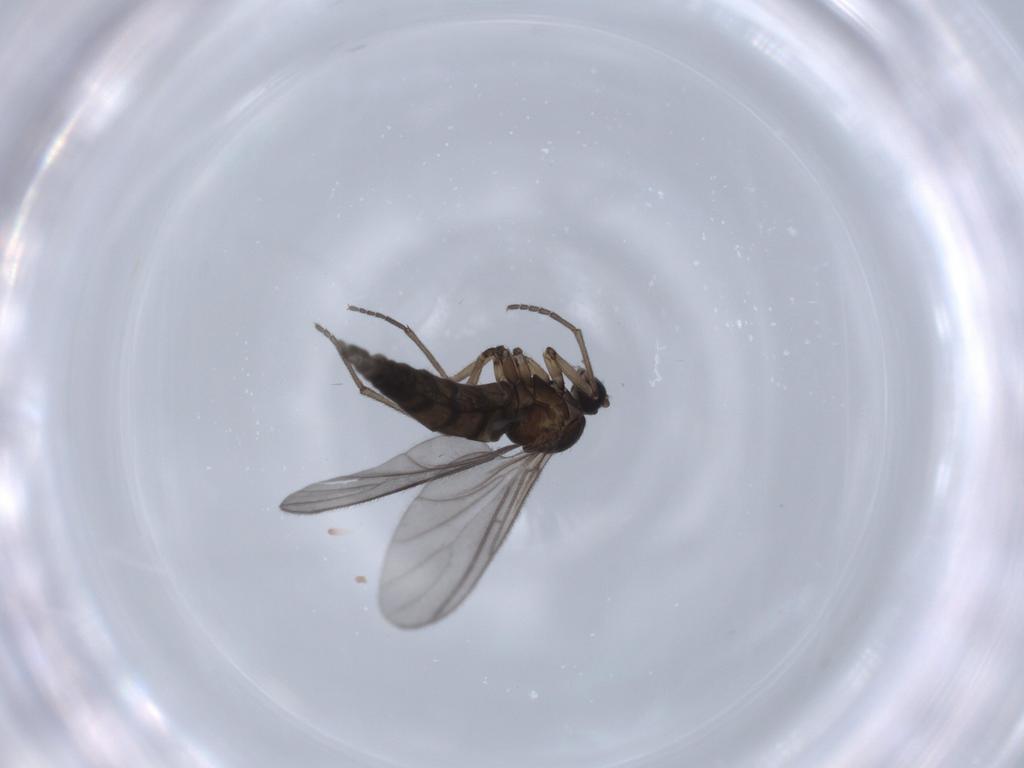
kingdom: Animalia
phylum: Arthropoda
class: Insecta
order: Diptera
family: Sciaridae
